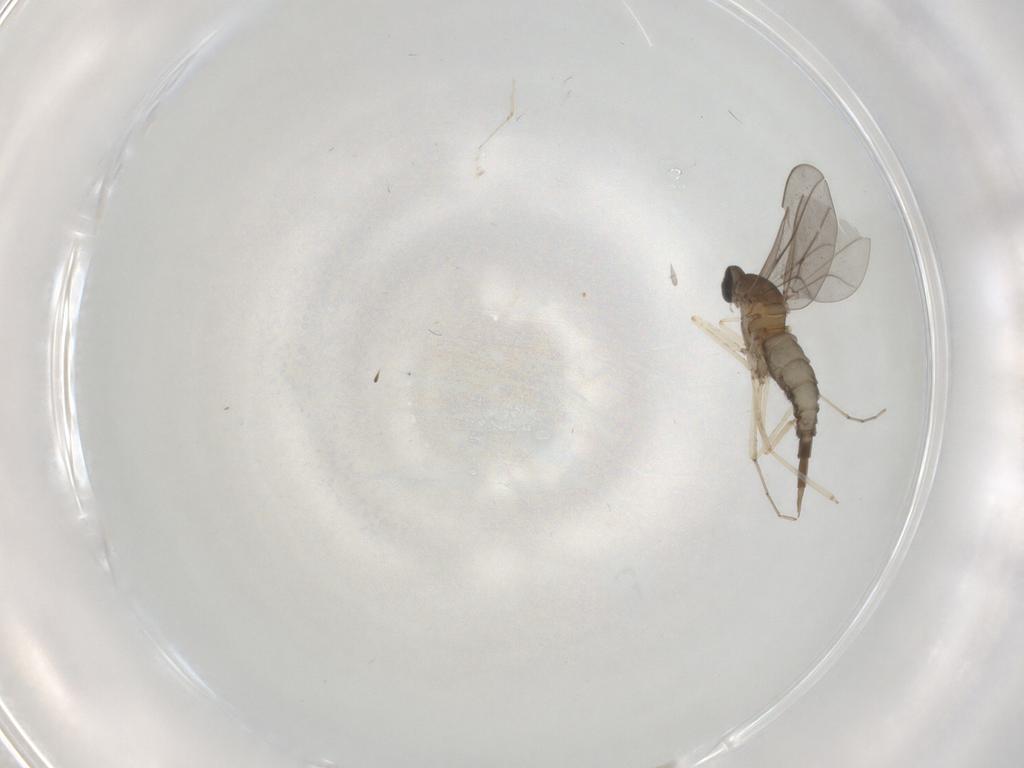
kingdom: Animalia
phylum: Arthropoda
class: Insecta
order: Diptera
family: Cecidomyiidae
